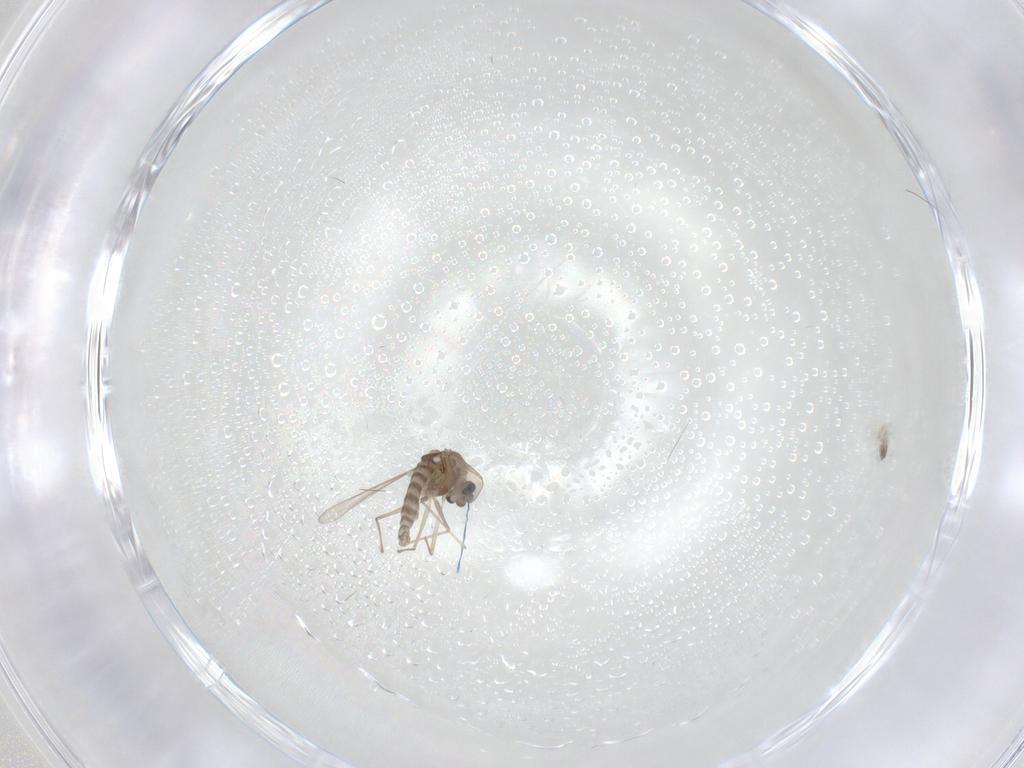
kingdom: Animalia
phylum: Arthropoda
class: Insecta
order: Diptera
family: Chironomidae
